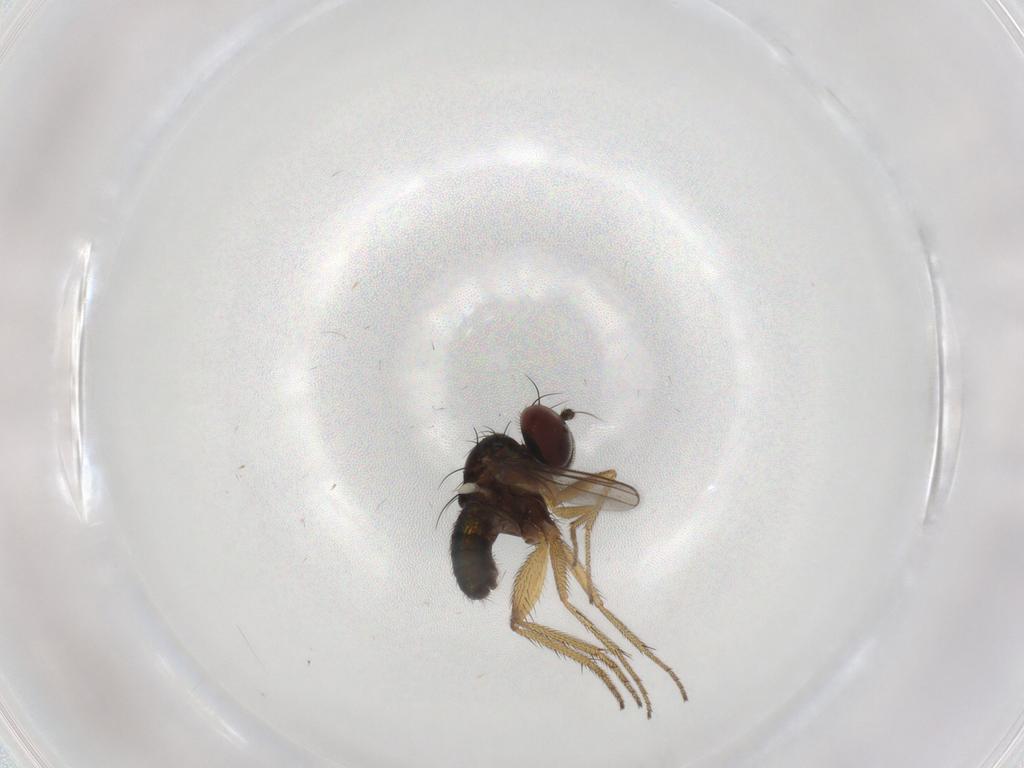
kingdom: Animalia
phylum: Arthropoda
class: Insecta
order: Diptera
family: Dolichopodidae
